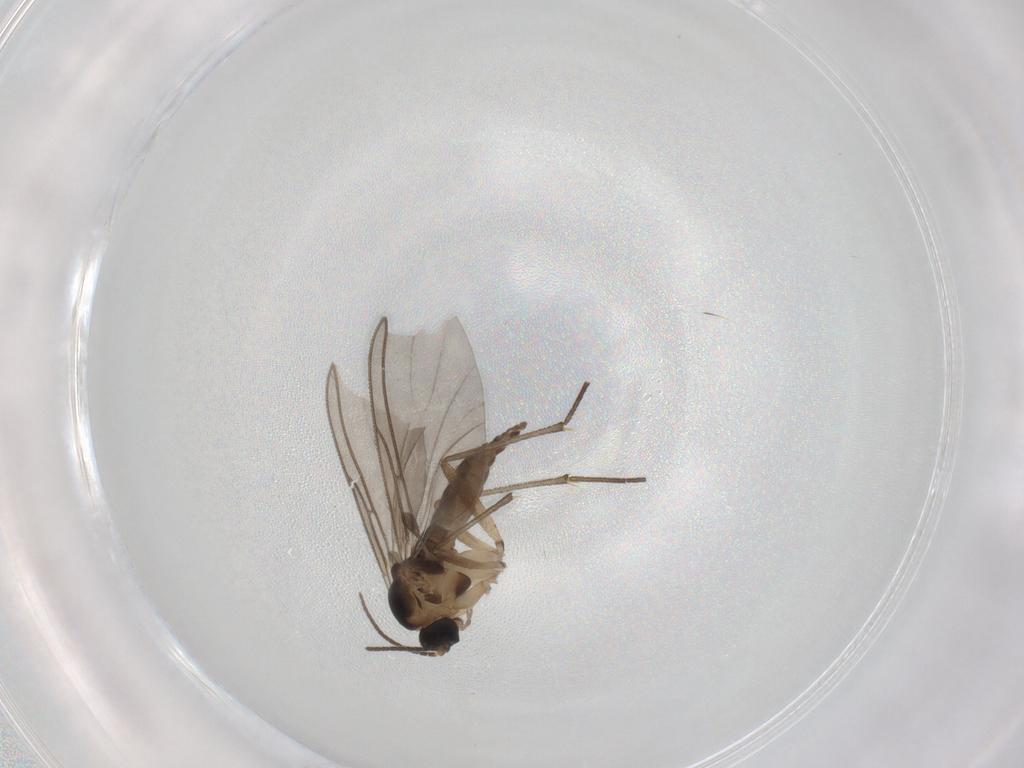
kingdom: Animalia
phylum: Arthropoda
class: Insecta
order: Diptera
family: Sciaridae
